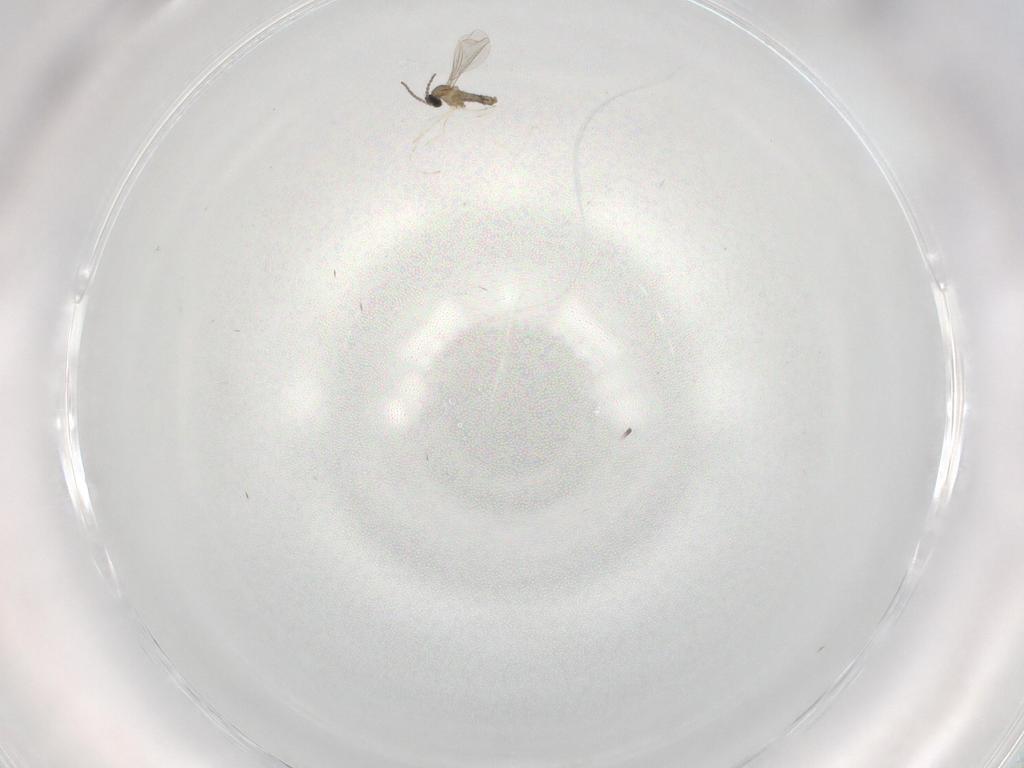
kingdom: Animalia
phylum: Arthropoda
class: Insecta
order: Diptera
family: Cecidomyiidae
